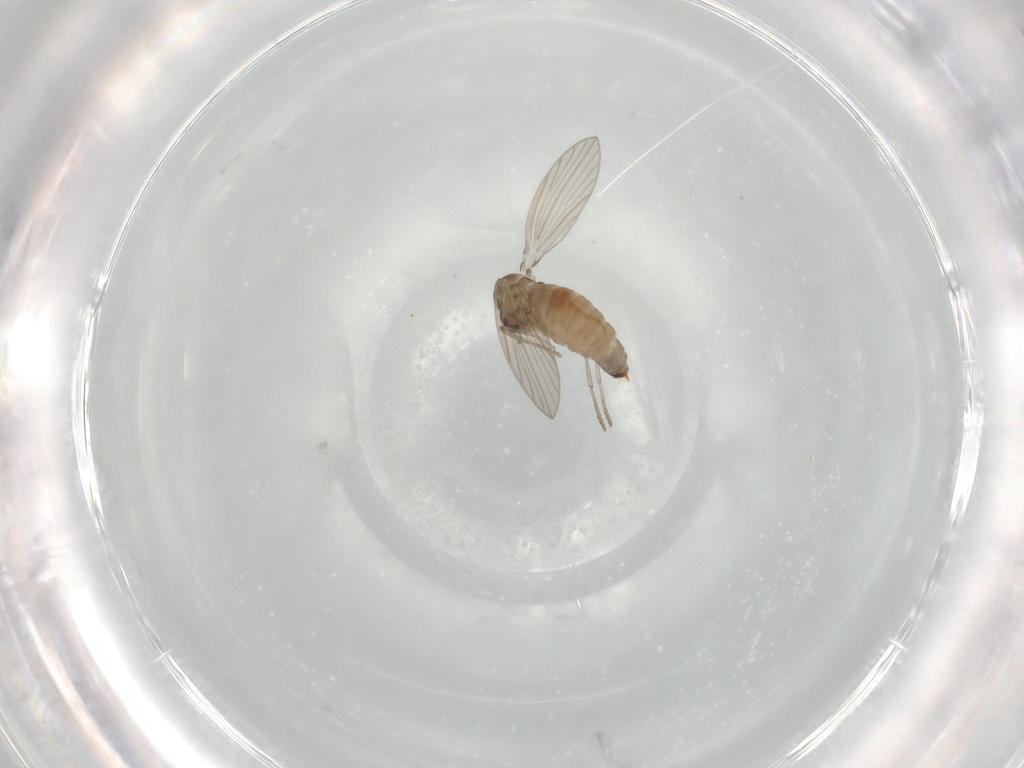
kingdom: Animalia
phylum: Arthropoda
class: Insecta
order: Diptera
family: Psychodidae
